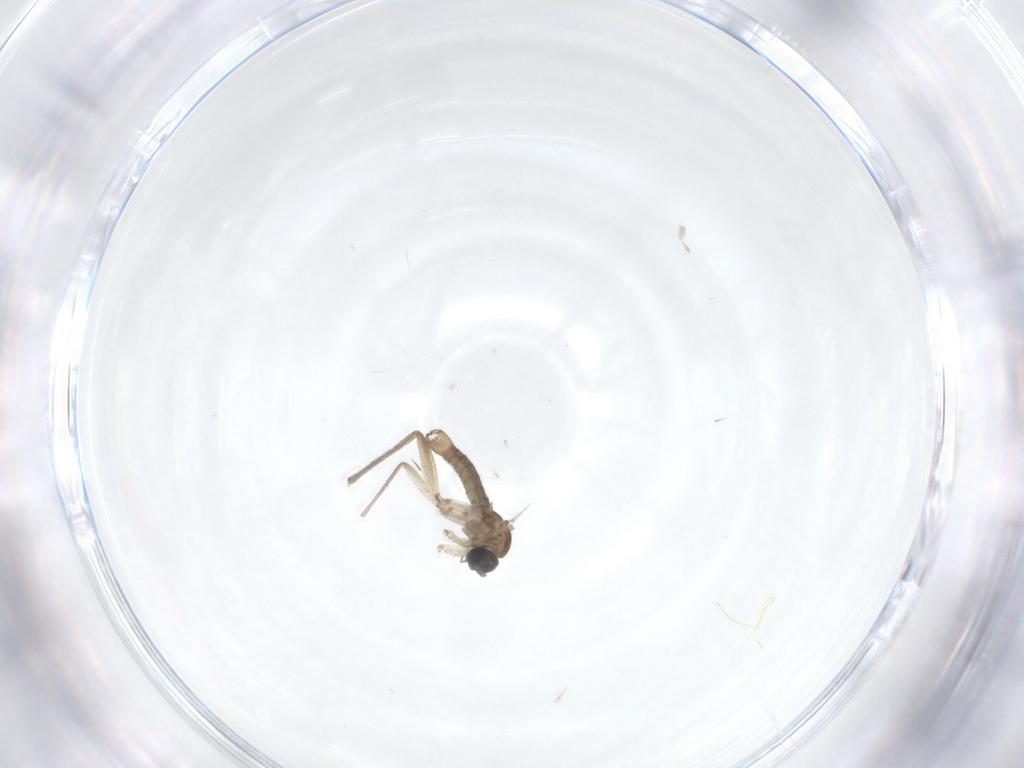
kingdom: Animalia
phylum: Arthropoda
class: Insecta
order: Diptera
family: Sciaridae
